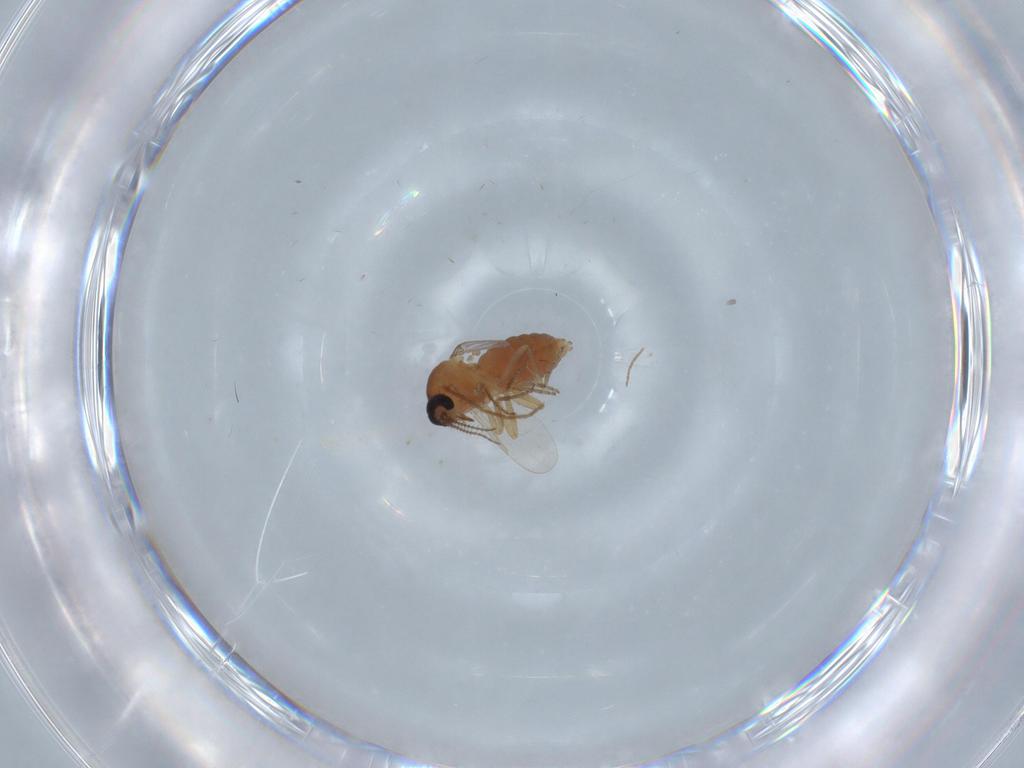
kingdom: Animalia
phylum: Arthropoda
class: Insecta
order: Diptera
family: Ceratopogonidae
